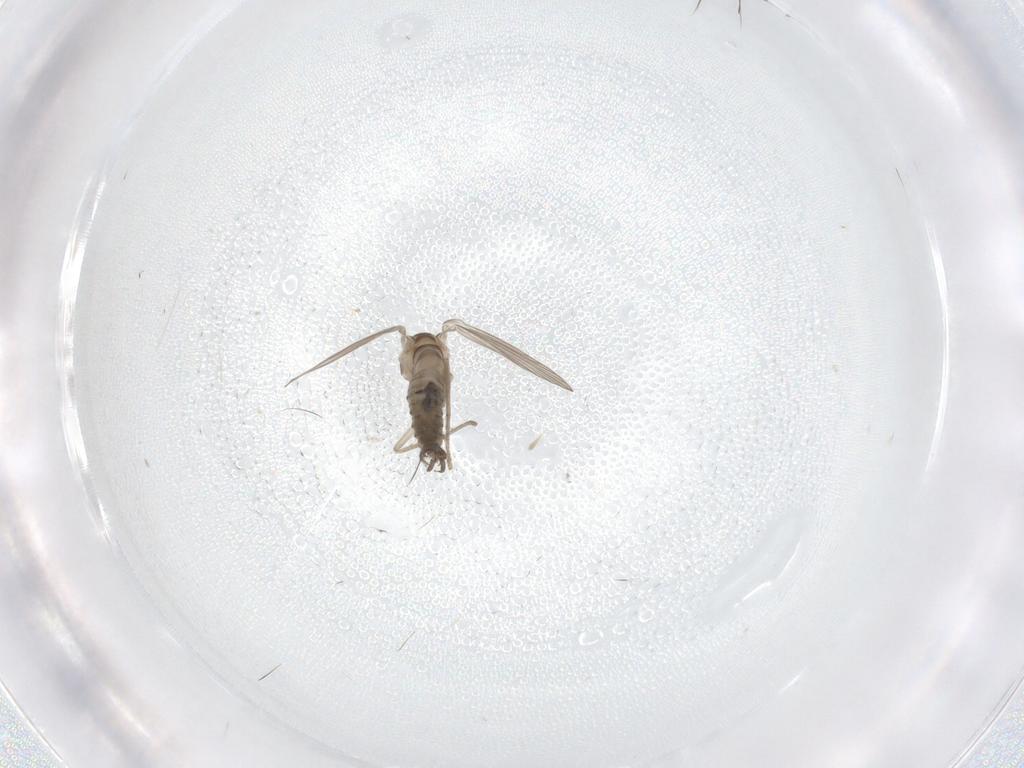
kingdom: Animalia
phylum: Arthropoda
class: Insecta
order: Diptera
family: Psychodidae
